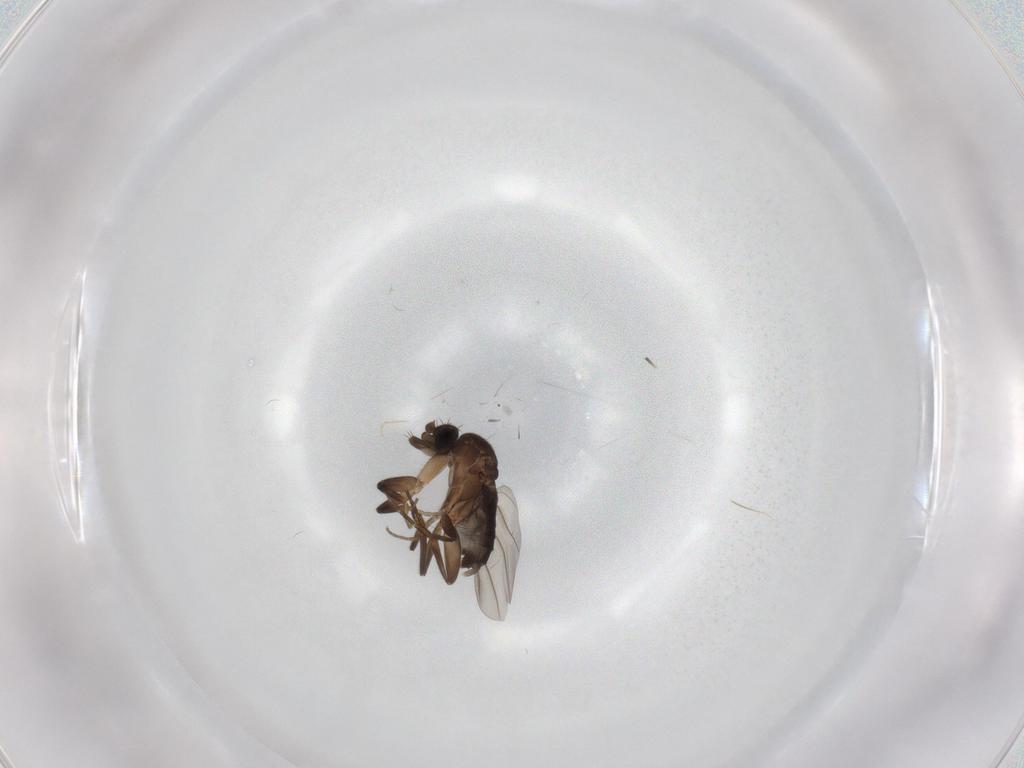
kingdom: Animalia
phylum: Arthropoda
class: Insecta
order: Diptera
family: Phoridae
